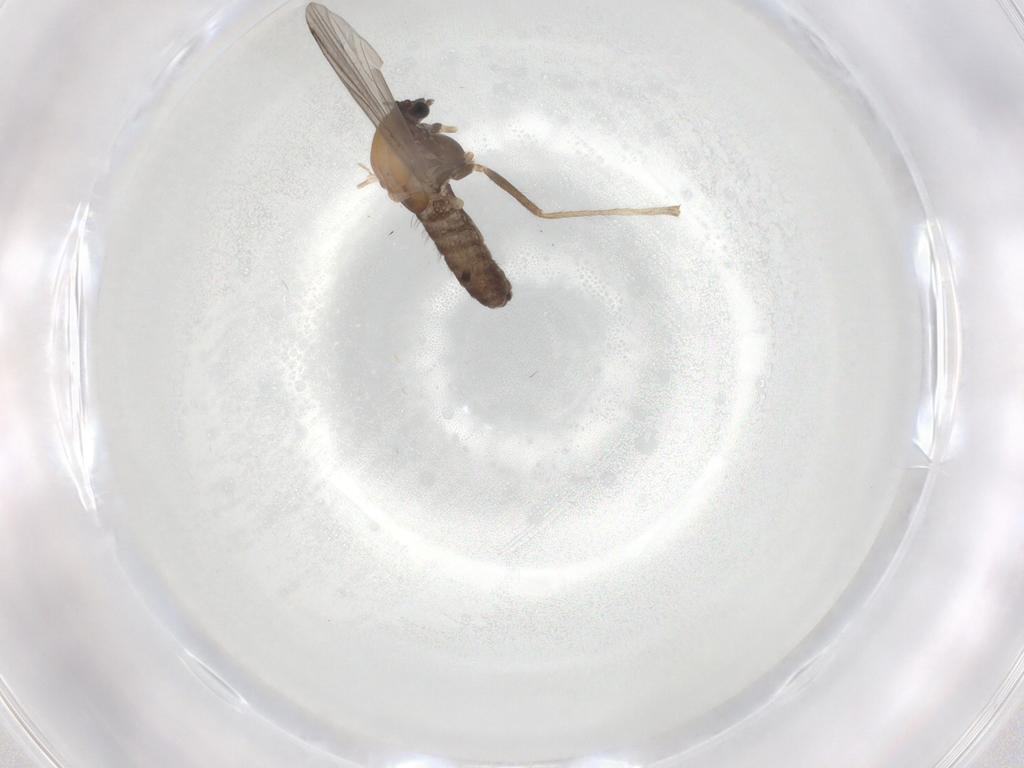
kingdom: Animalia
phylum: Arthropoda
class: Insecta
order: Diptera
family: Chironomidae
